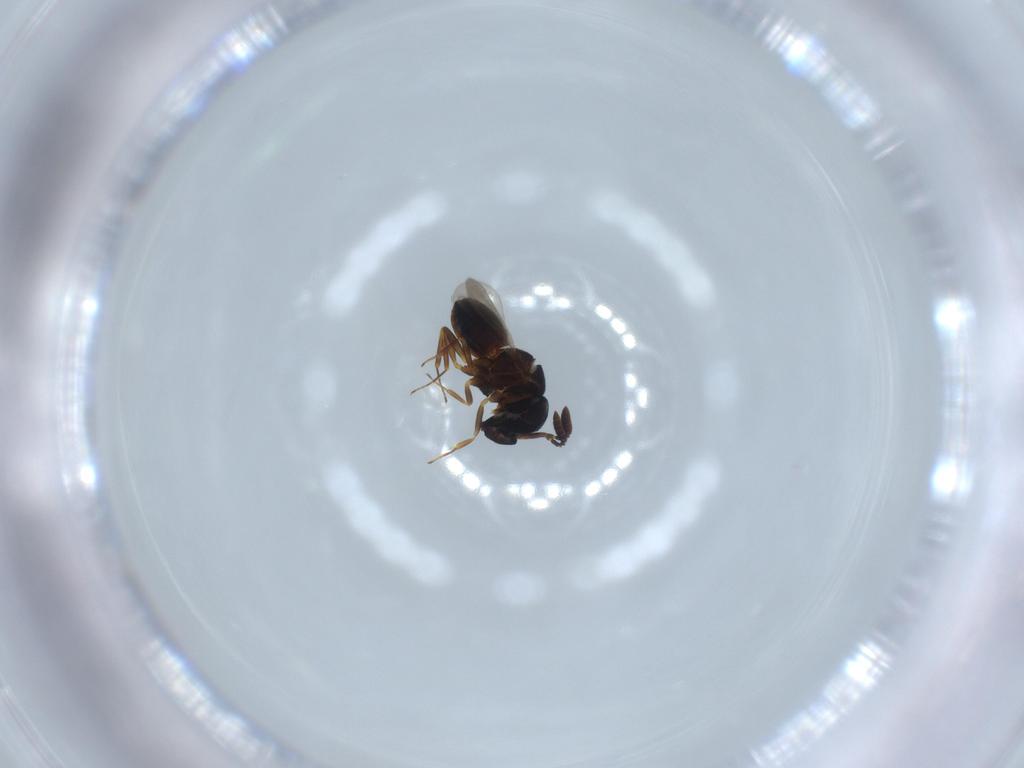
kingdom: Animalia
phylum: Arthropoda
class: Insecta
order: Hymenoptera
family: Scelionidae
